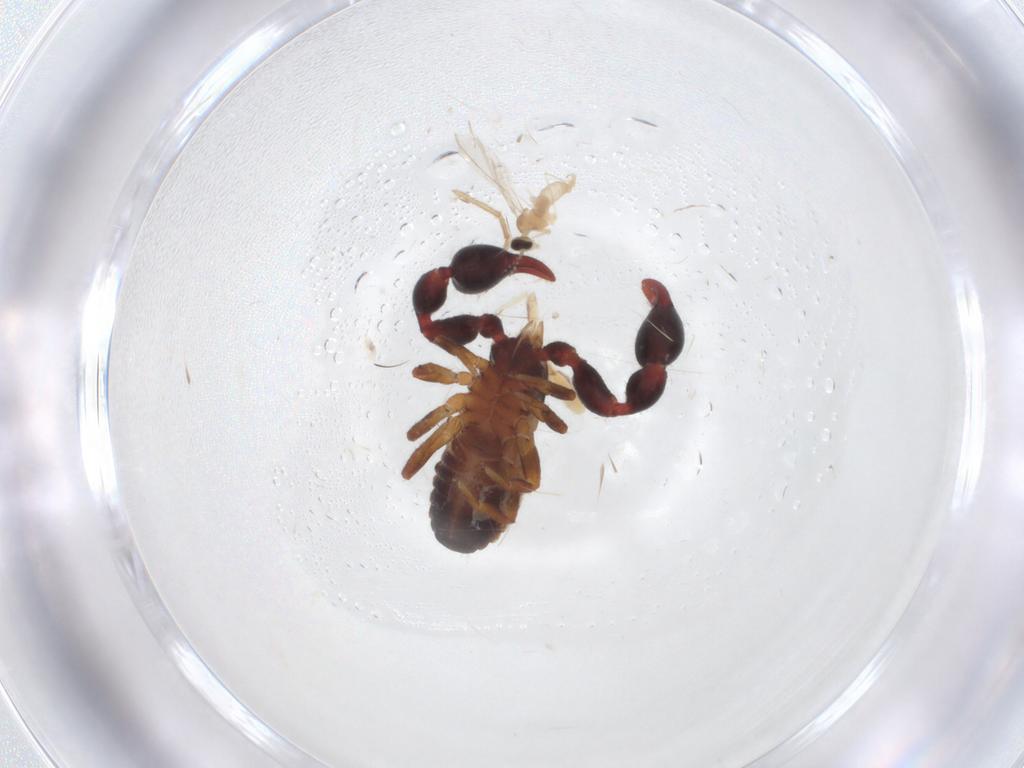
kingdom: Animalia
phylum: Arthropoda
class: Arachnida
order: Pseudoscorpiones
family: Chernetidae
